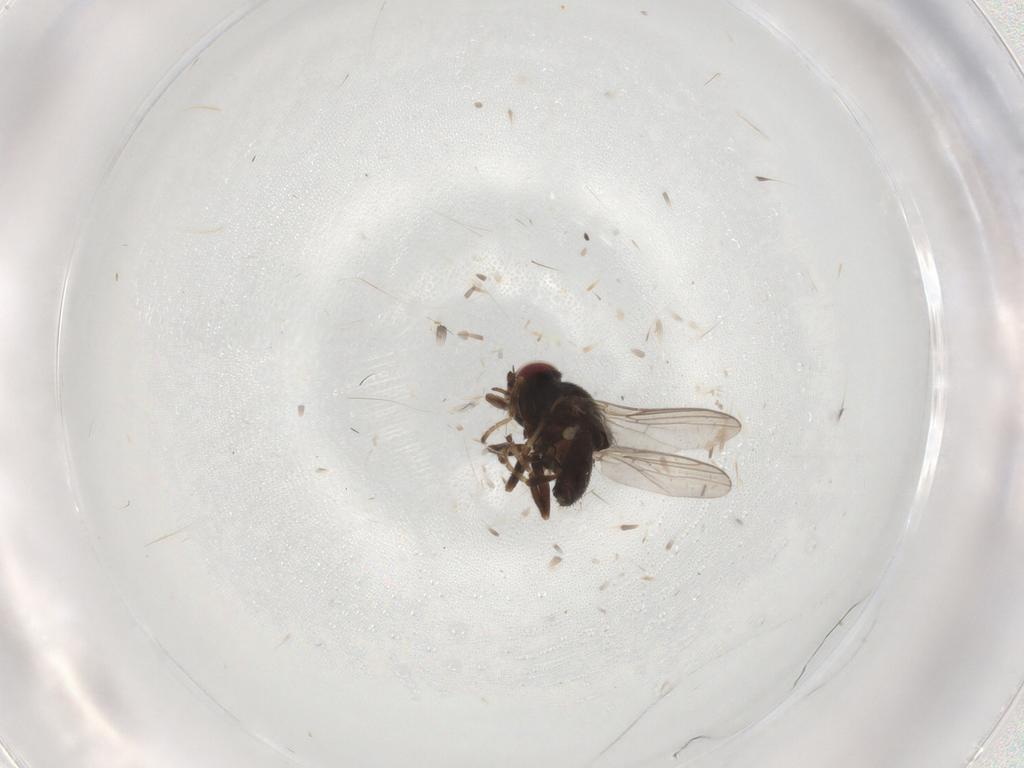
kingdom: Animalia
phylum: Arthropoda
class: Insecta
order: Diptera
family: Chloropidae
